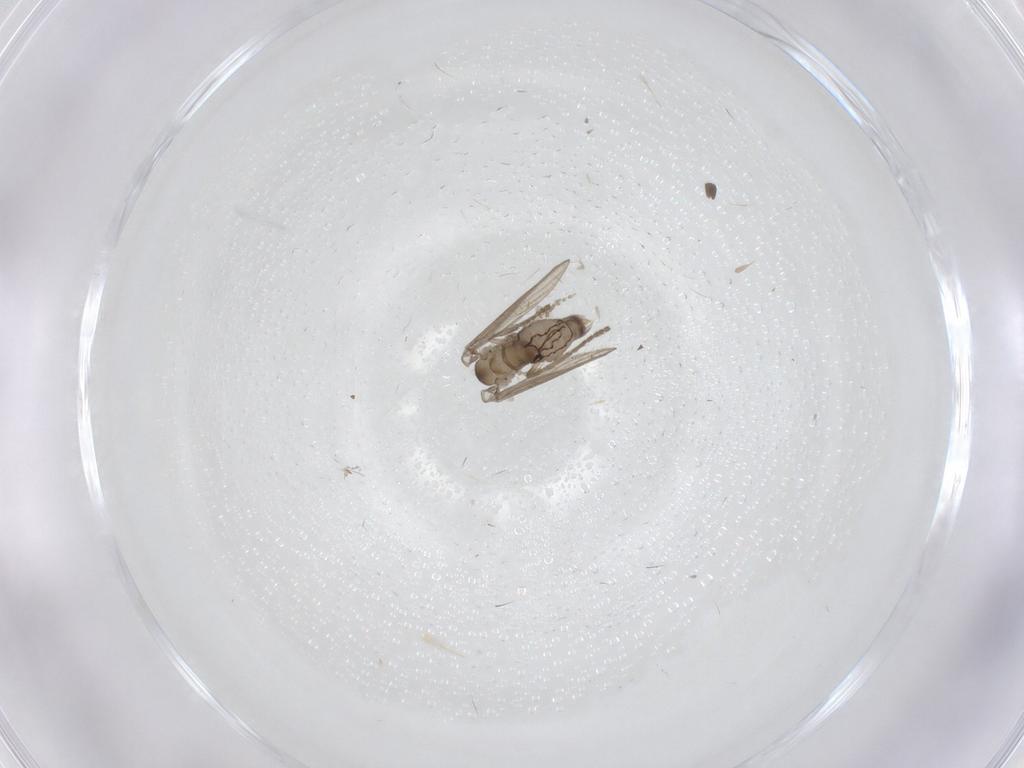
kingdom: Animalia
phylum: Arthropoda
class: Insecta
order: Diptera
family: Psychodidae
